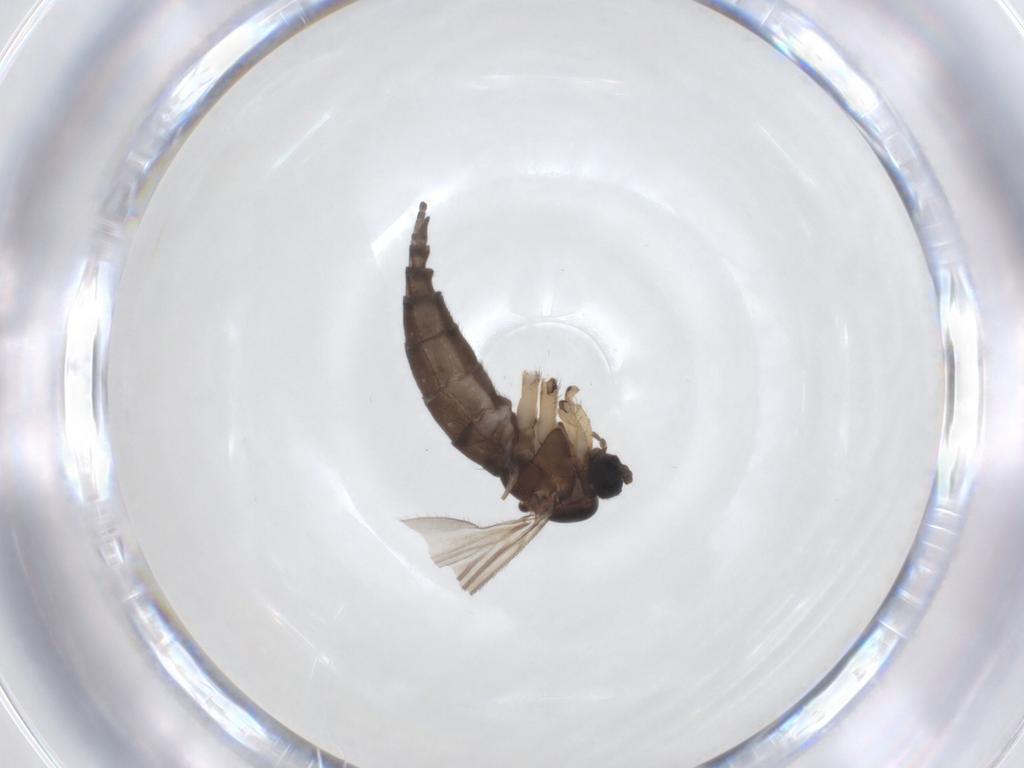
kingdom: Animalia
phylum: Arthropoda
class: Insecta
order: Diptera
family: Sciaridae
